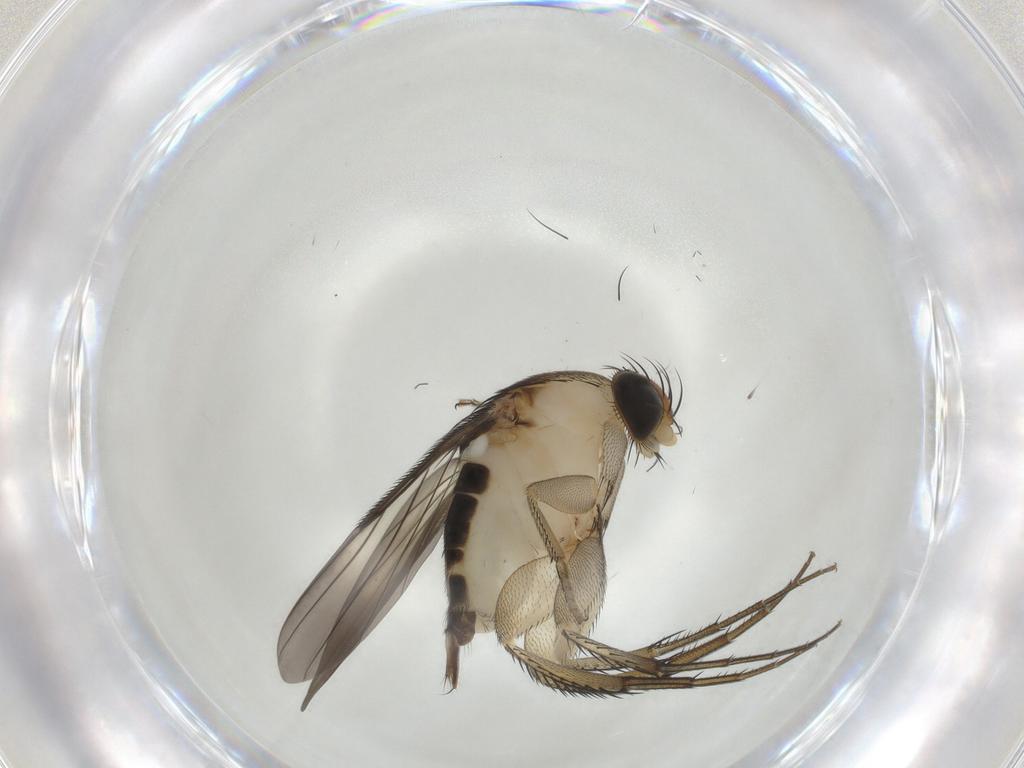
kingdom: Animalia
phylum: Arthropoda
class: Insecta
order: Diptera
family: Phoridae
